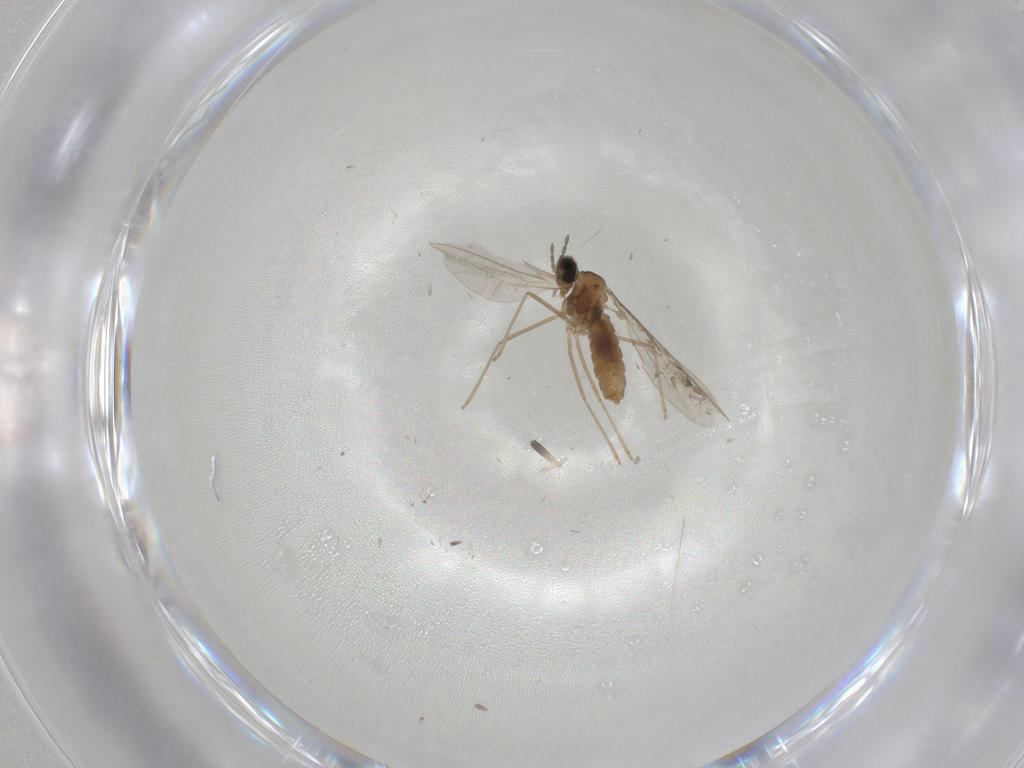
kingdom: Animalia
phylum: Arthropoda
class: Insecta
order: Diptera
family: Cecidomyiidae
